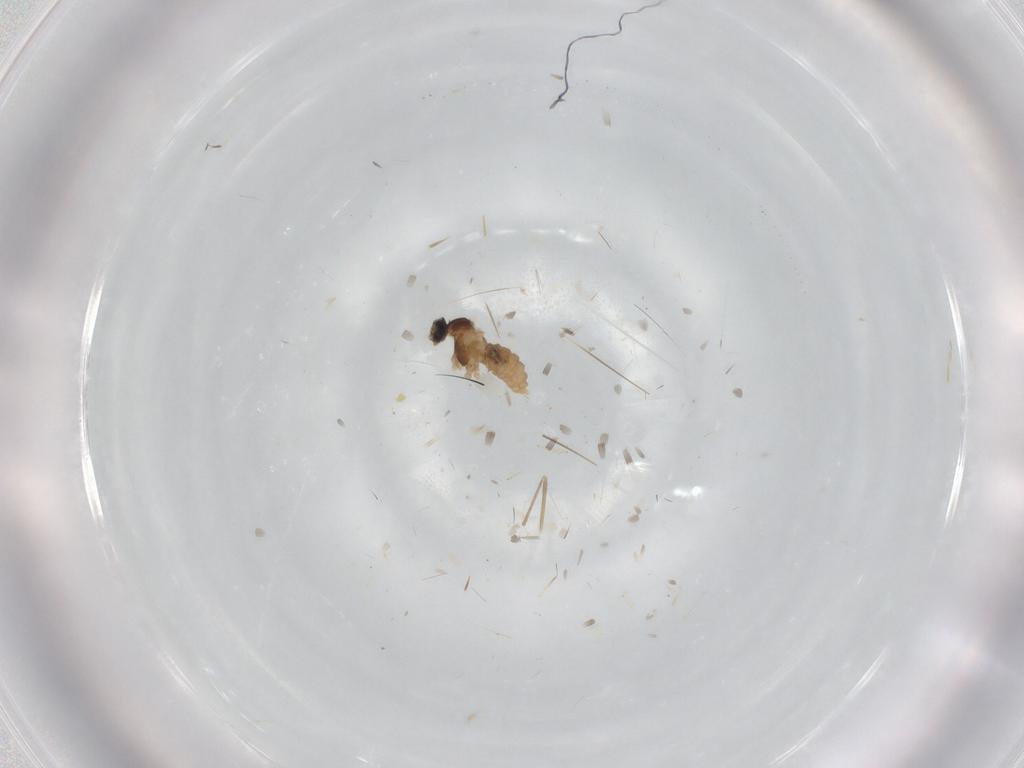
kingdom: Animalia
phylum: Arthropoda
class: Insecta
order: Diptera
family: Cecidomyiidae
